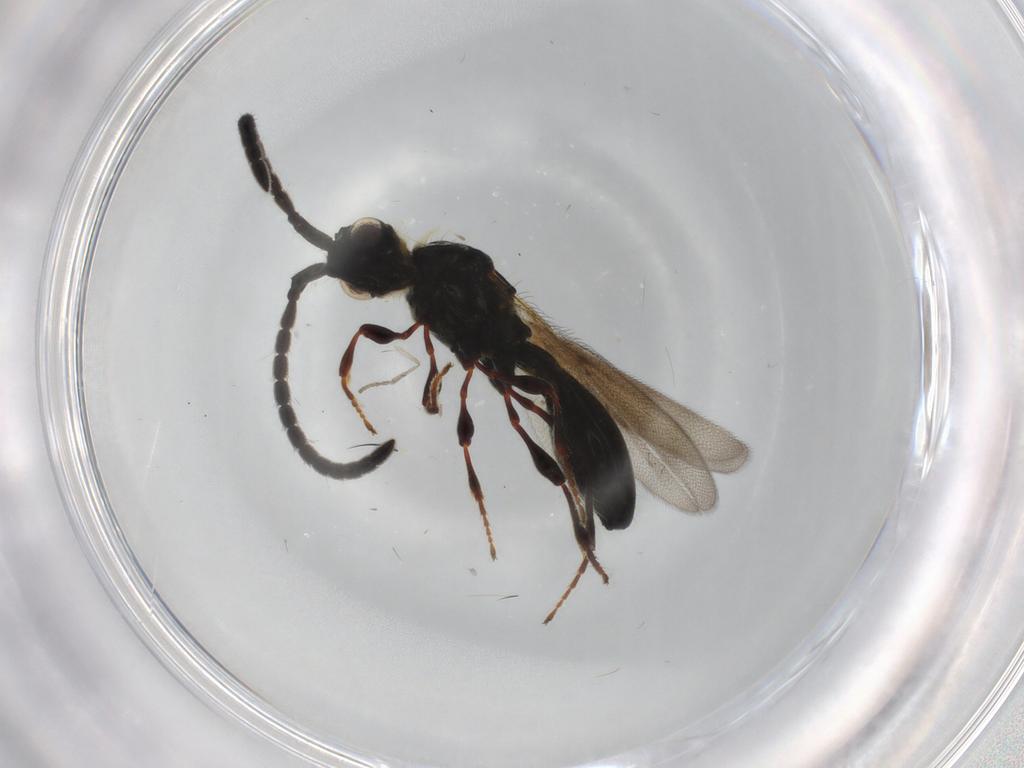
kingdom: Animalia
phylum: Arthropoda
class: Insecta
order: Hymenoptera
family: Diapriidae
